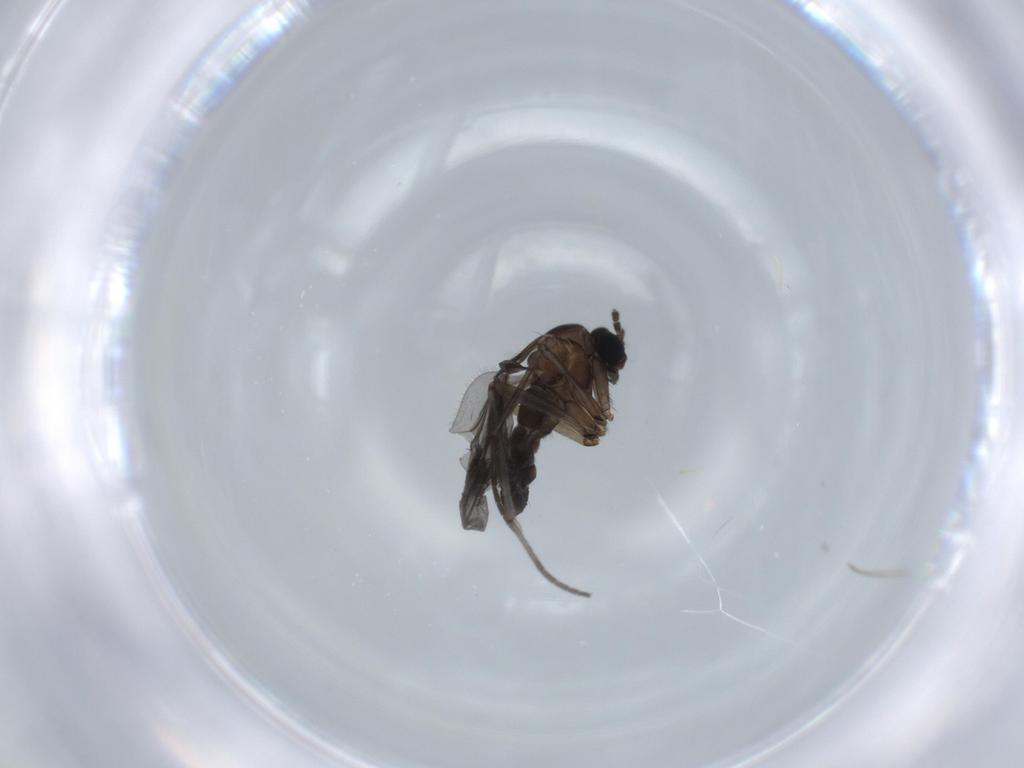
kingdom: Animalia
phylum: Arthropoda
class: Insecta
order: Diptera
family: Sciaridae
